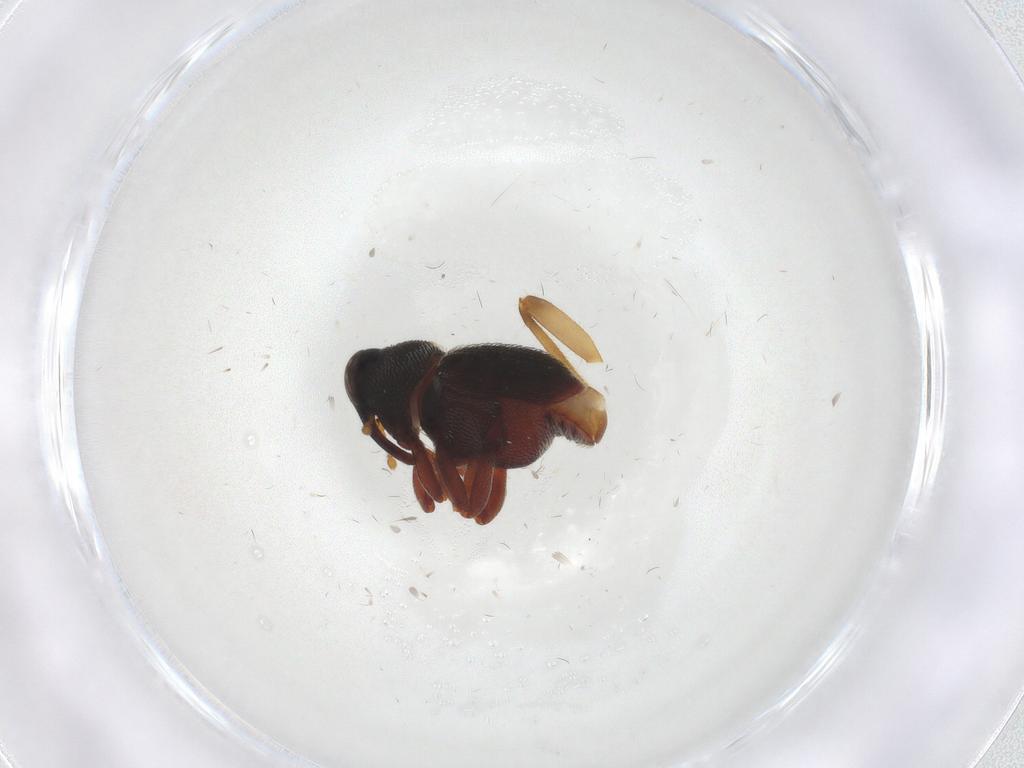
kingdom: Animalia
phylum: Arthropoda
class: Insecta
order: Coleoptera
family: Curculionidae
